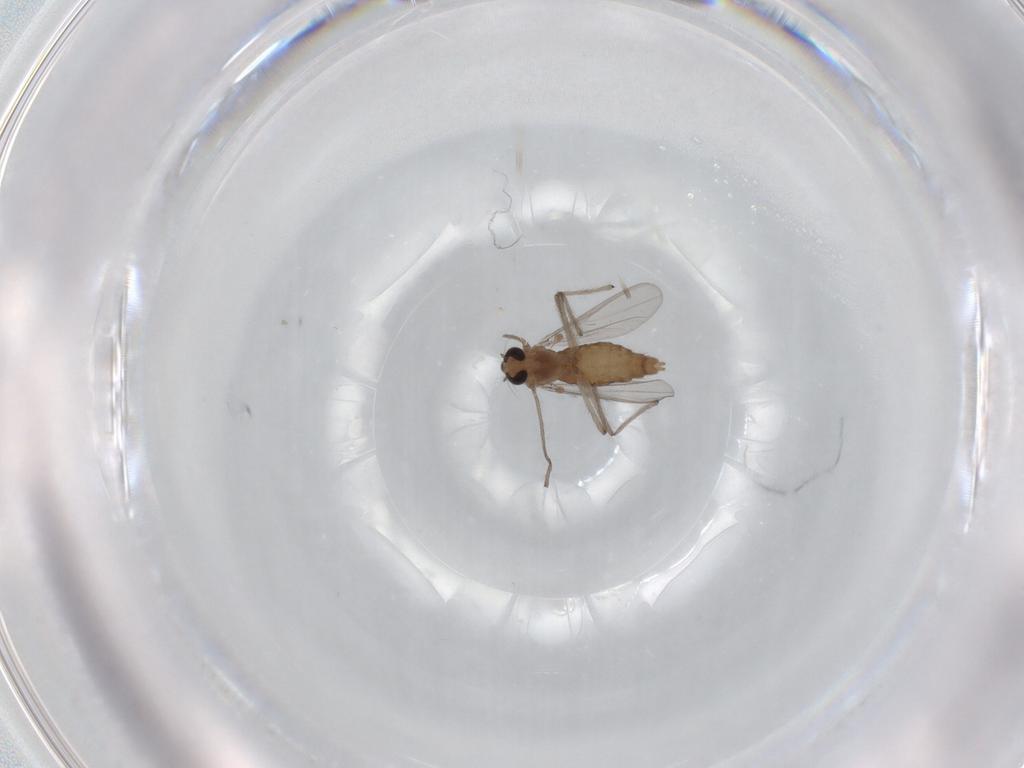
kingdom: Animalia
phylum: Arthropoda
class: Insecta
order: Diptera
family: Chironomidae
